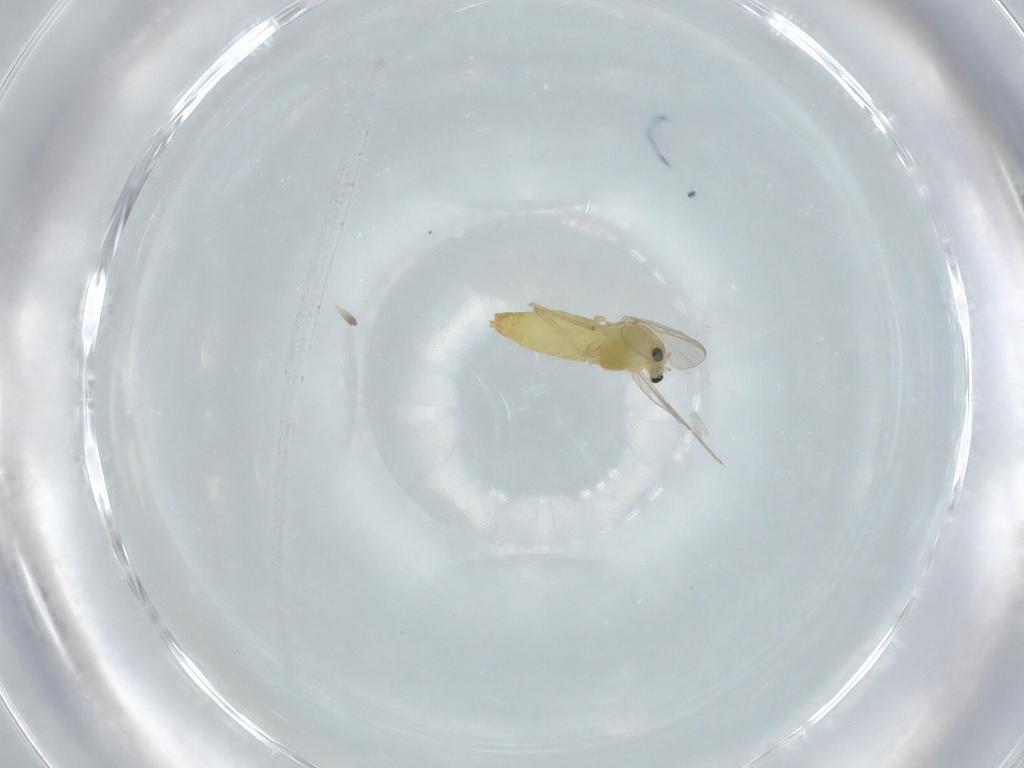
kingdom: Animalia
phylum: Arthropoda
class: Insecta
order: Diptera
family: Chironomidae
